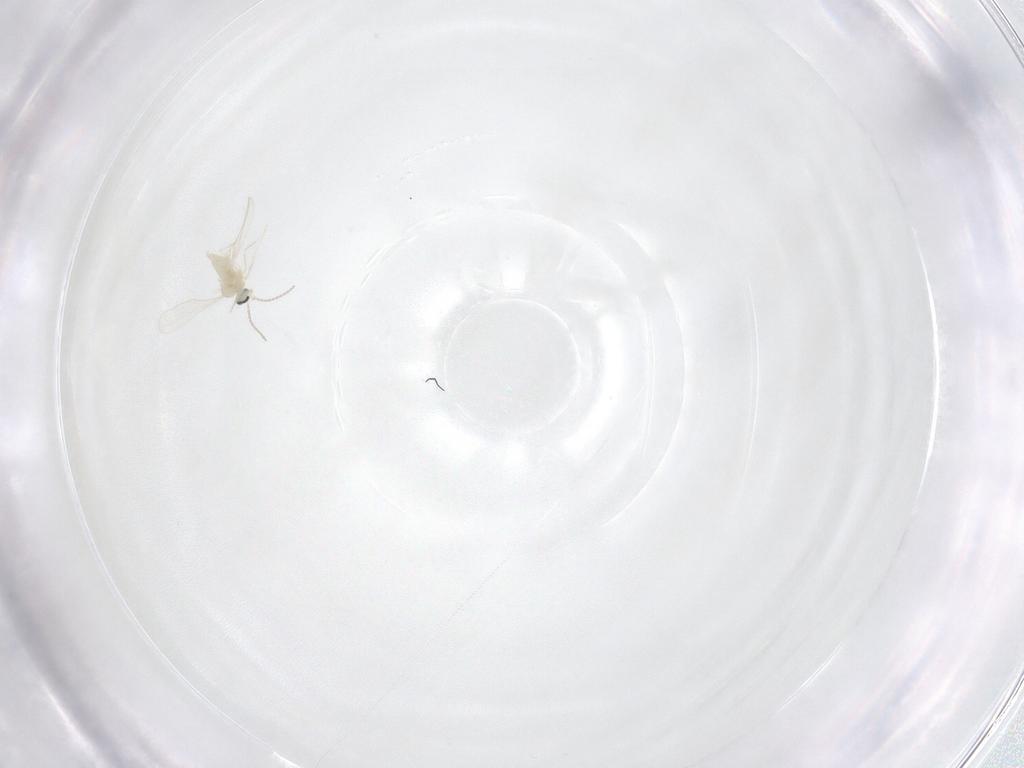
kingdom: Animalia
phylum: Arthropoda
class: Insecta
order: Diptera
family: Cecidomyiidae
